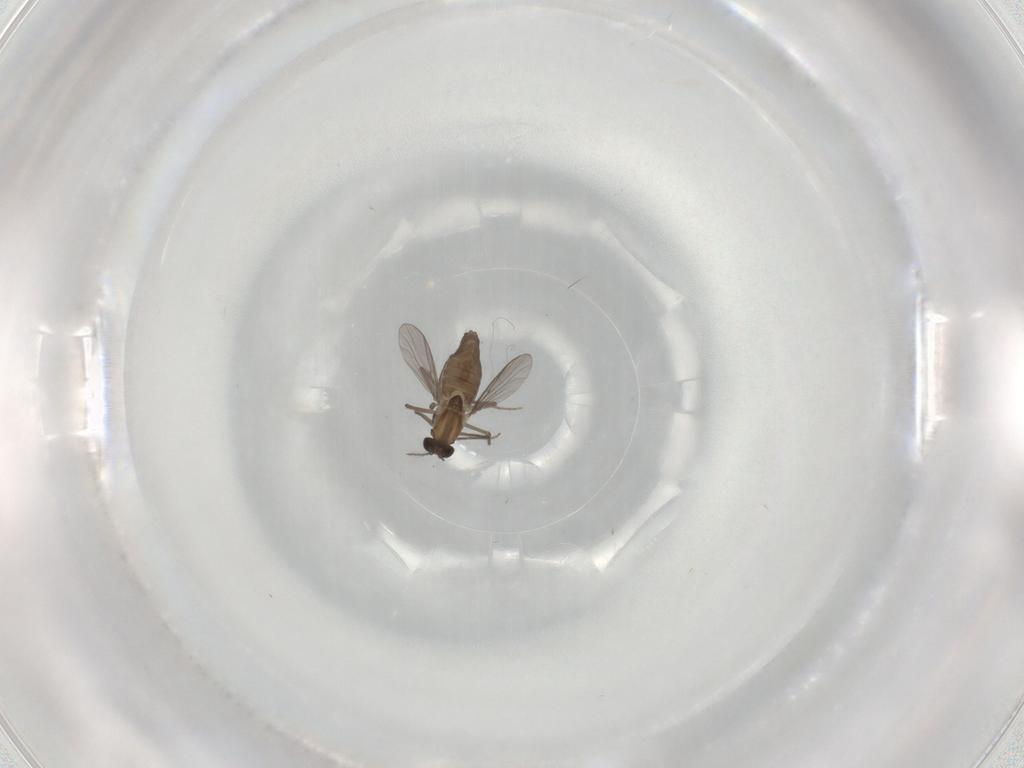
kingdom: Animalia
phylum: Arthropoda
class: Insecta
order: Diptera
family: Chironomidae
